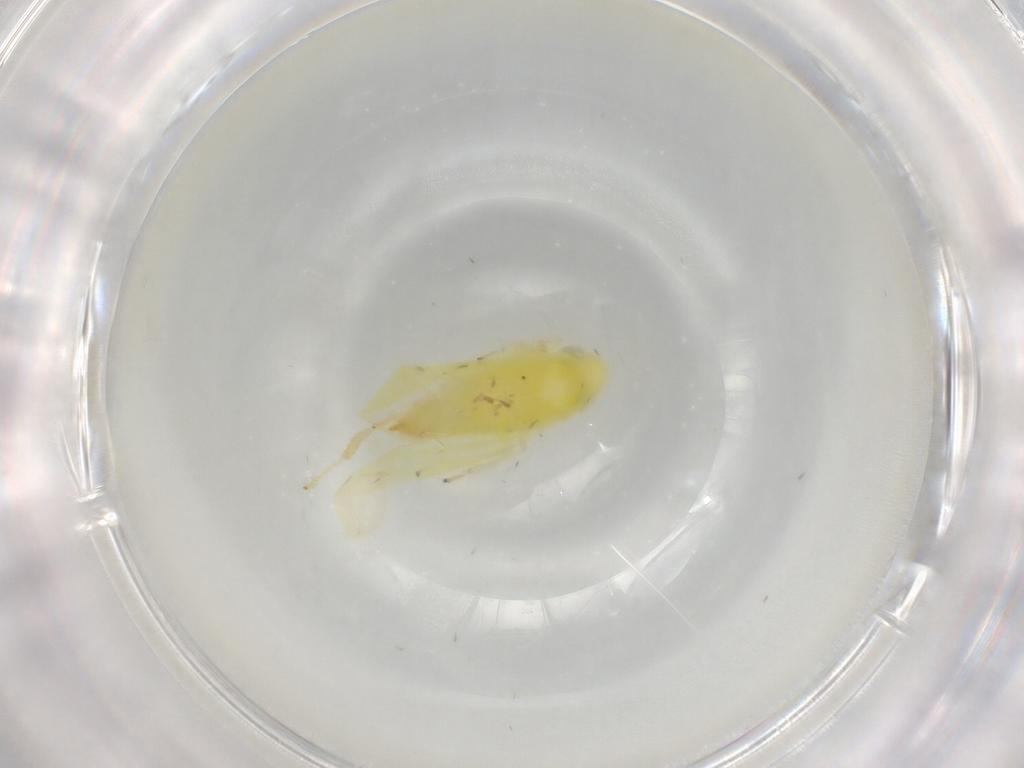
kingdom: Animalia
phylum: Arthropoda
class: Insecta
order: Hemiptera
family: Cicadellidae
